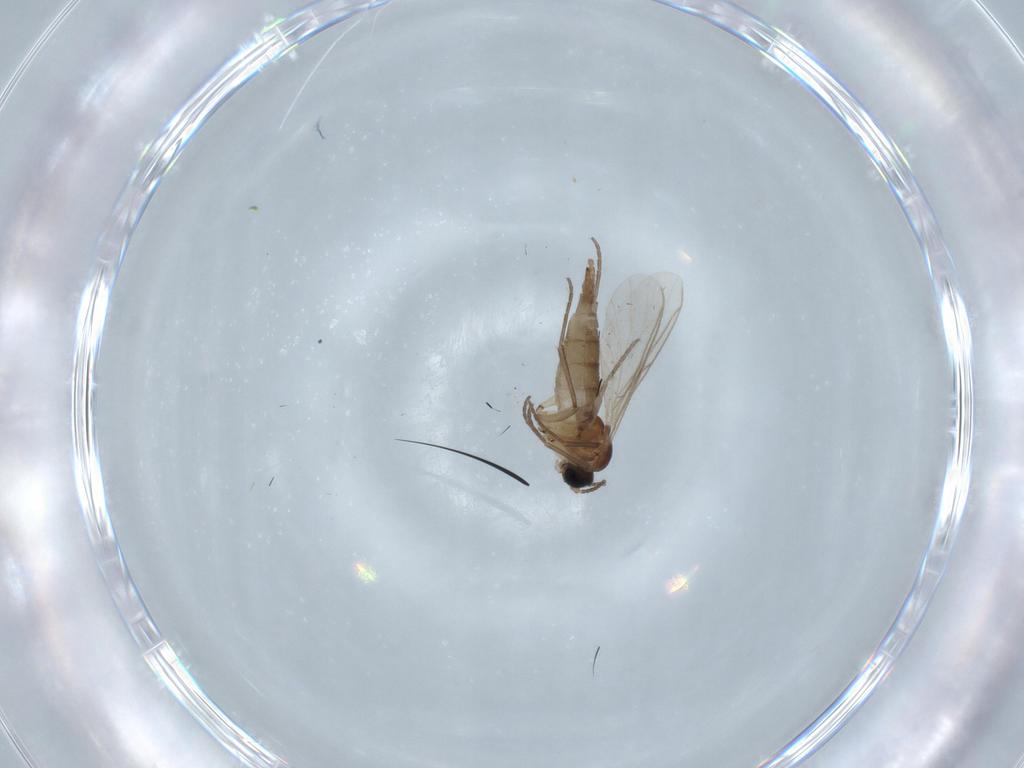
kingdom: Animalia
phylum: Arthropoda
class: Insecta
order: Diptera
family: Sciaridae
